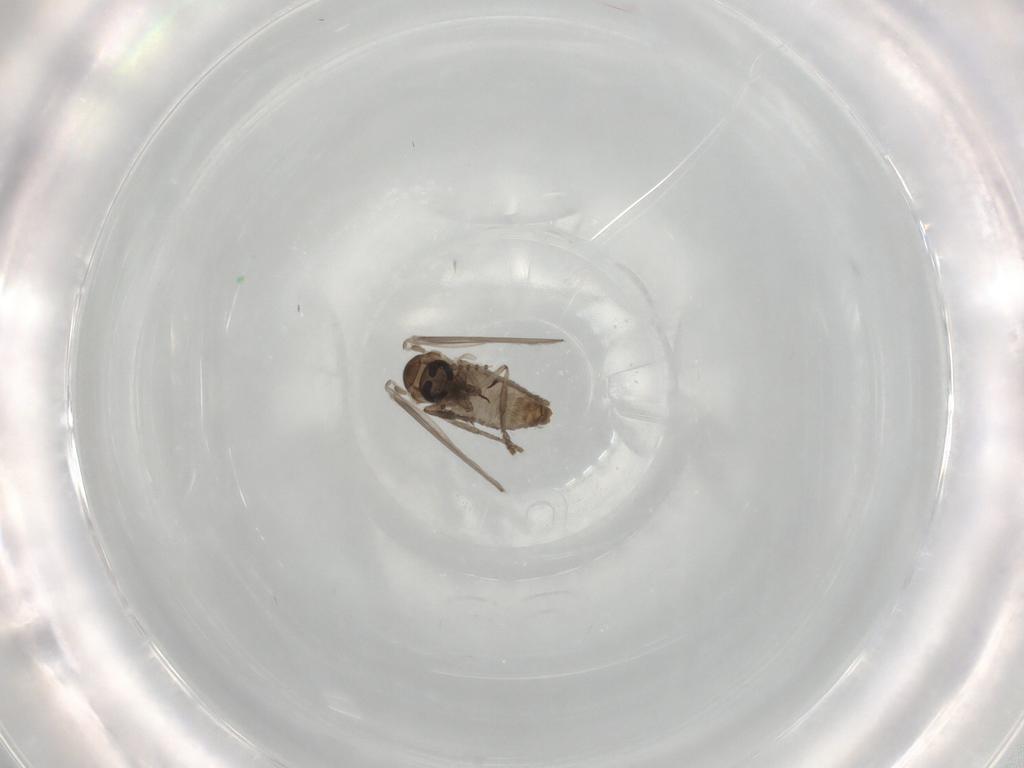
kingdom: Animalia
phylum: Arthropoda
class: Insecta
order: Diptera
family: Psychodidae
